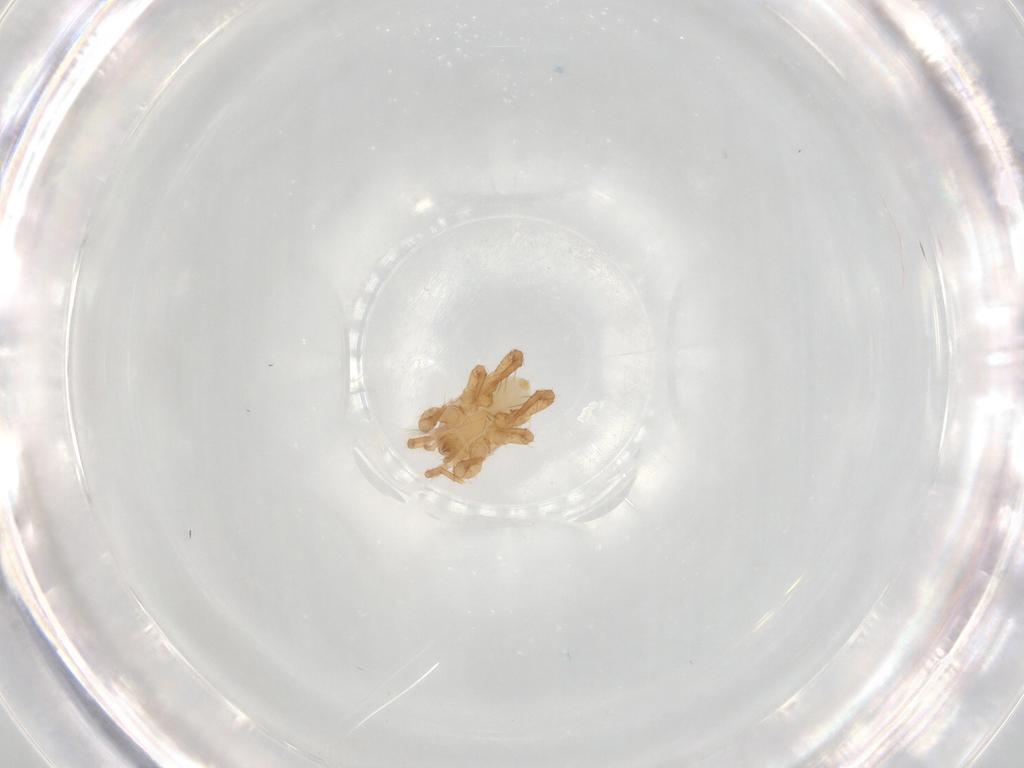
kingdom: Animalia
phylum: Arthropoda
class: Arachnida
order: Mesostigmata
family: Parasitidae
